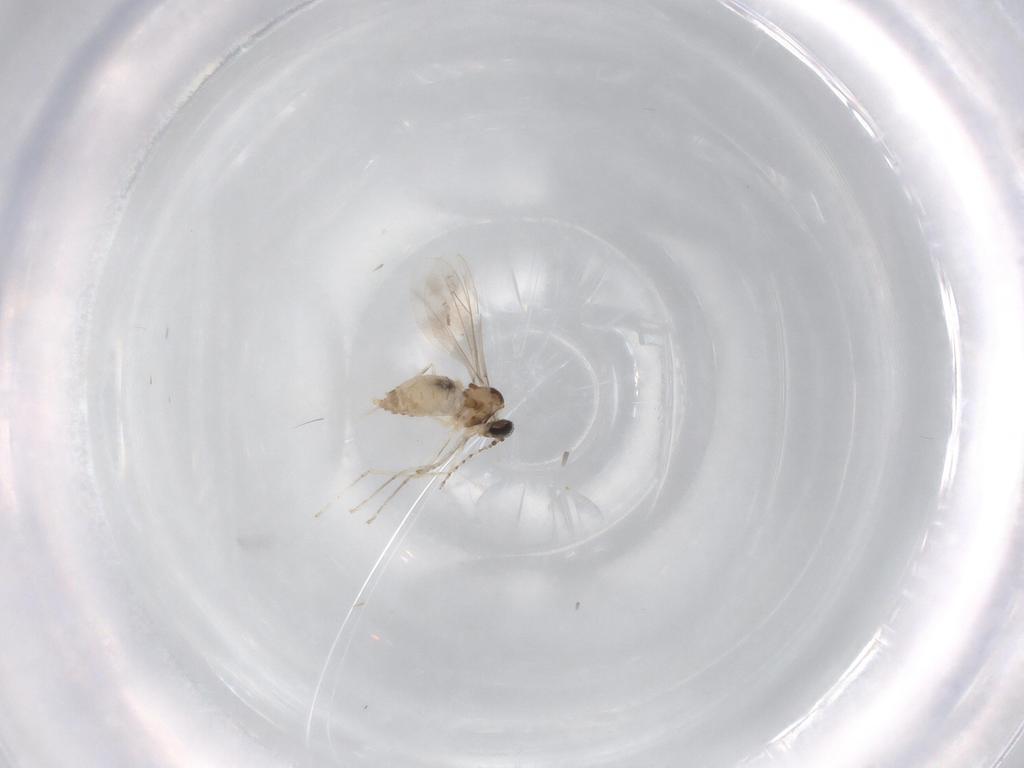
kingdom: Animalia
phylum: Arthropoda
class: Insecta
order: Diptera
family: Cecidomyiidae
